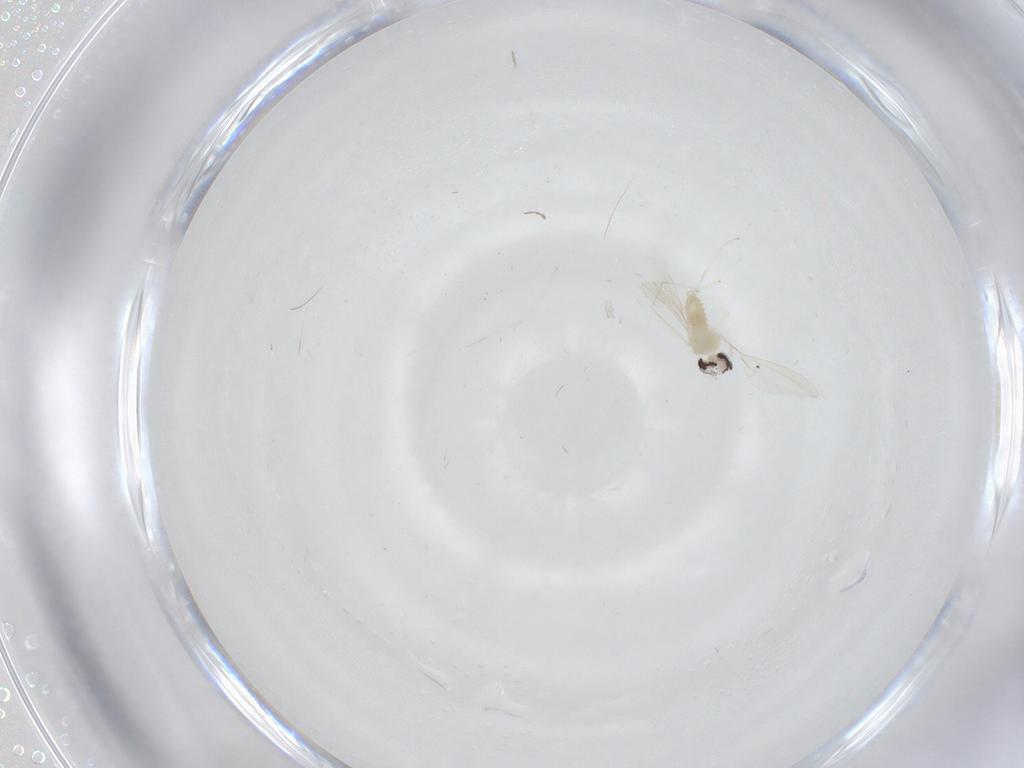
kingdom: Animalia
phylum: Arthropoda
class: Insecta
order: Diptera
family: Cecidomyiidae
